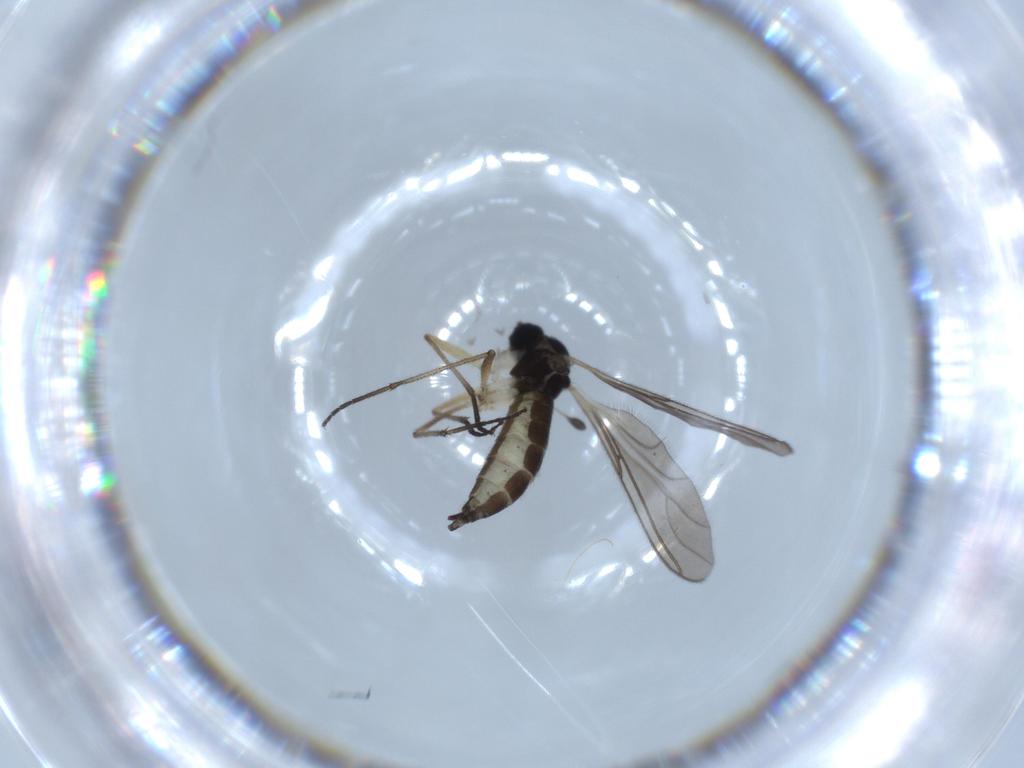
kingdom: Animalia
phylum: Arthropoda
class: Insecta
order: Diptera
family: Sciaridae
